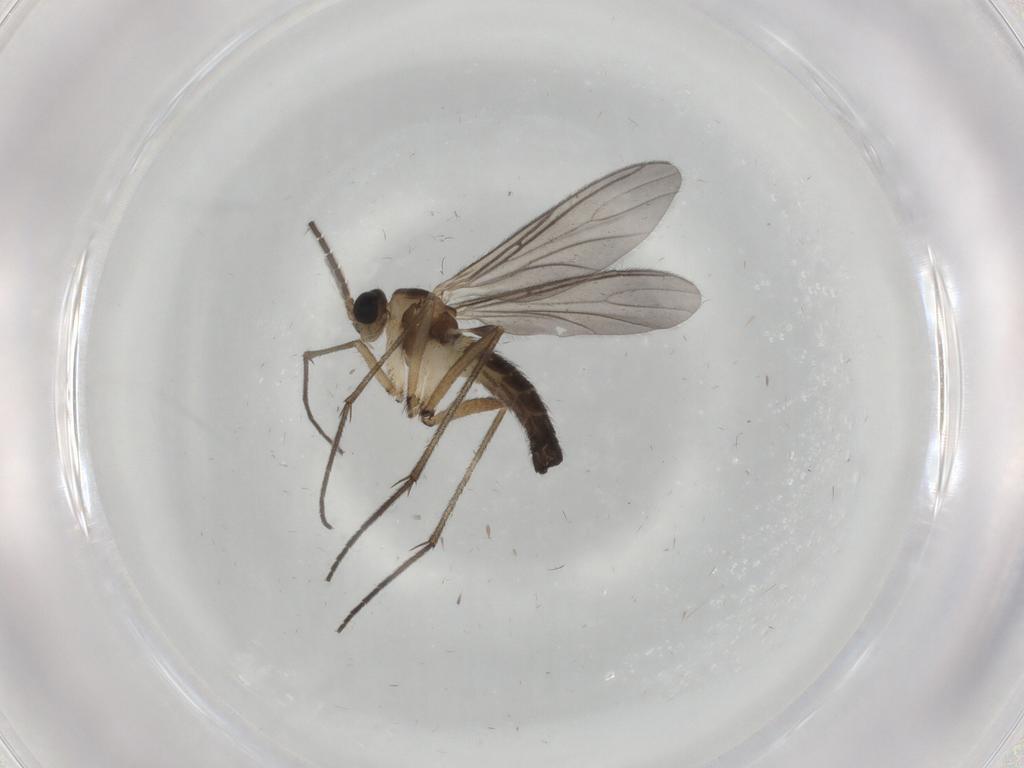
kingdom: Animalia
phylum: Arthropoda
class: Insecta
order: Diptera
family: Sciaridae
